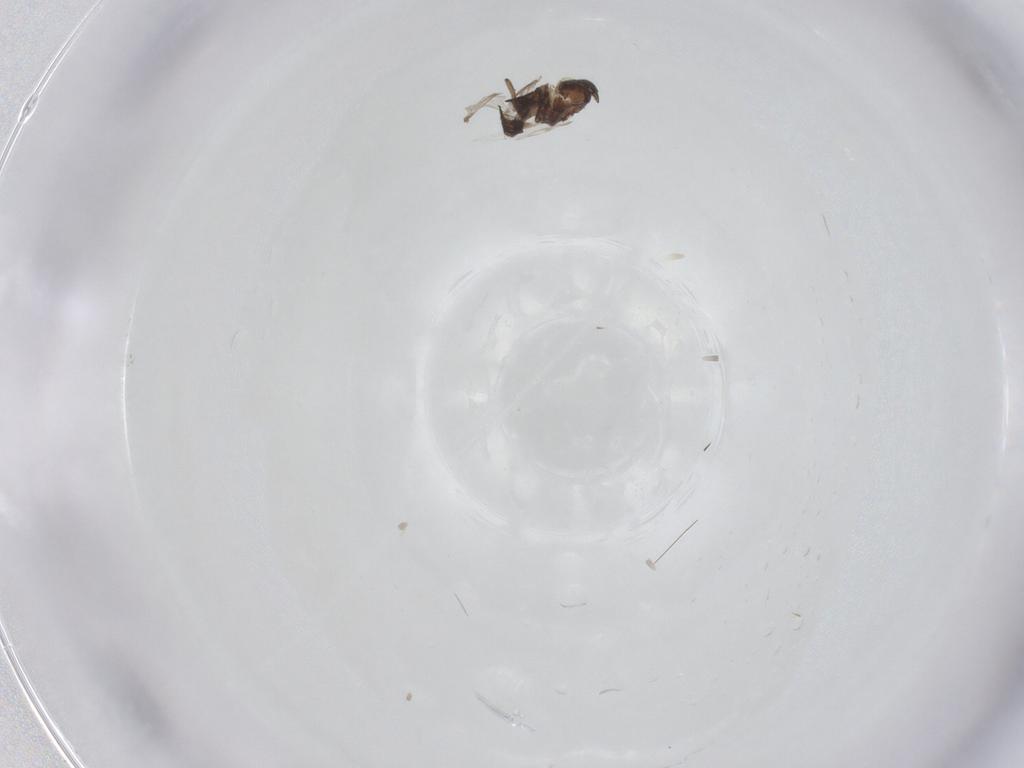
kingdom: Animalia
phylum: Arthropoda
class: Insecta
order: Diptera
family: Ceratopogonidae
